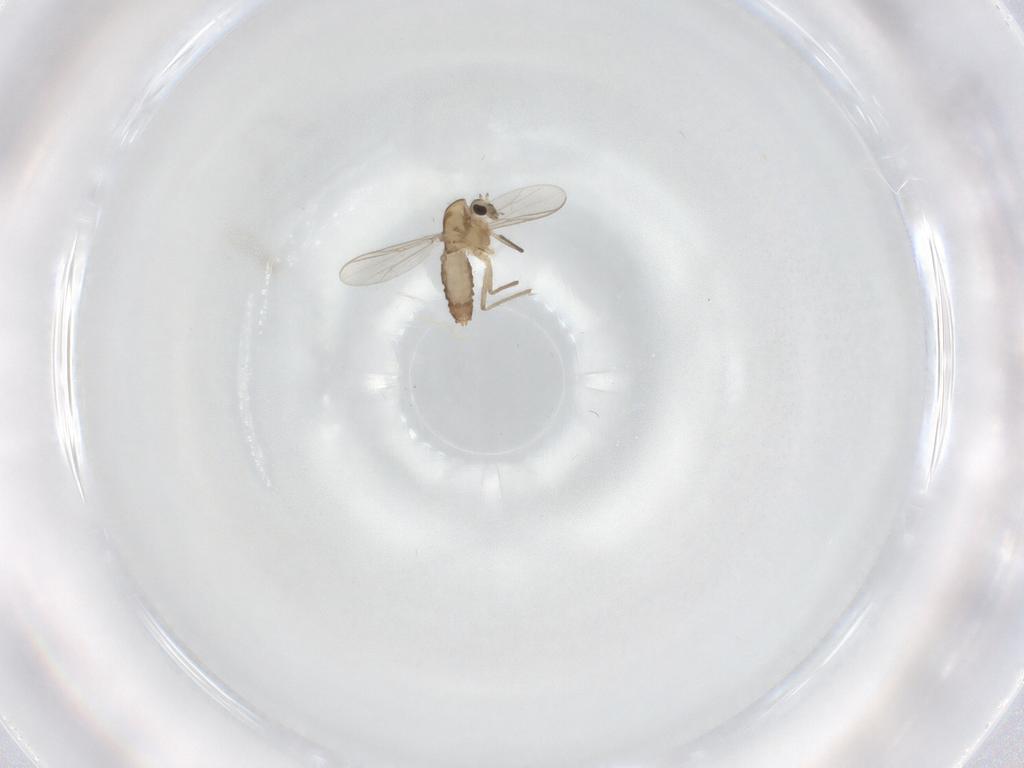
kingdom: Animalia
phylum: Arthropoda
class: Insecta
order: Diptera
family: Chironomidae
